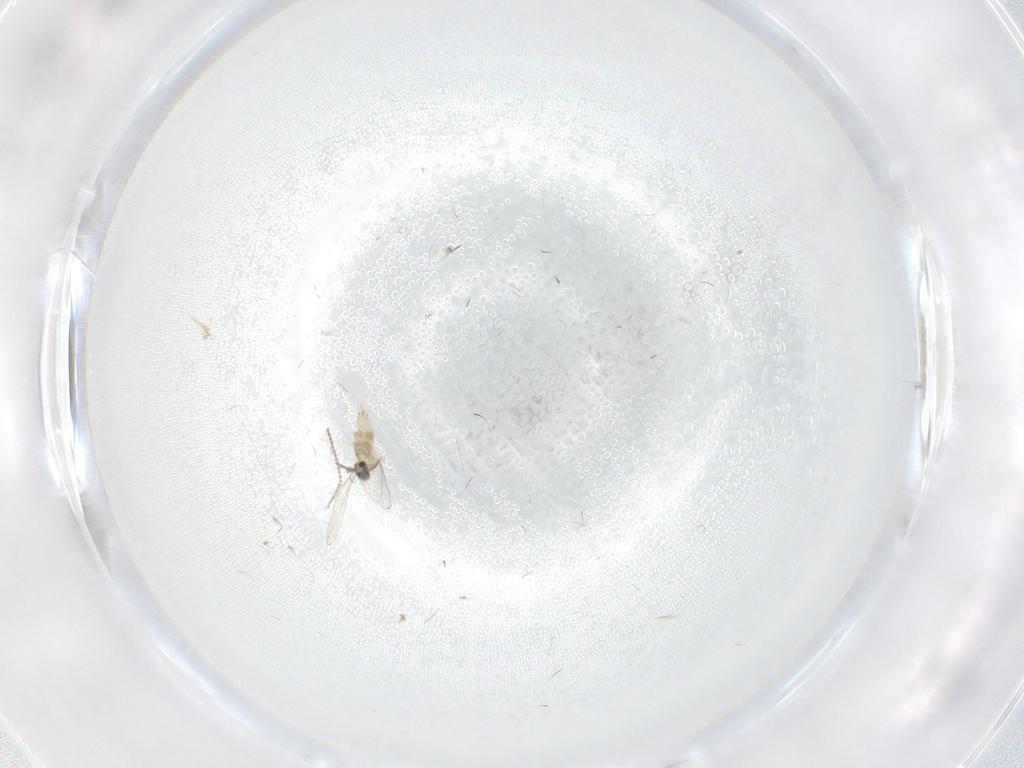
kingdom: Animalia
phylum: Arthropoda
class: Insecta
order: Diptera
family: Cecidomyiidae
